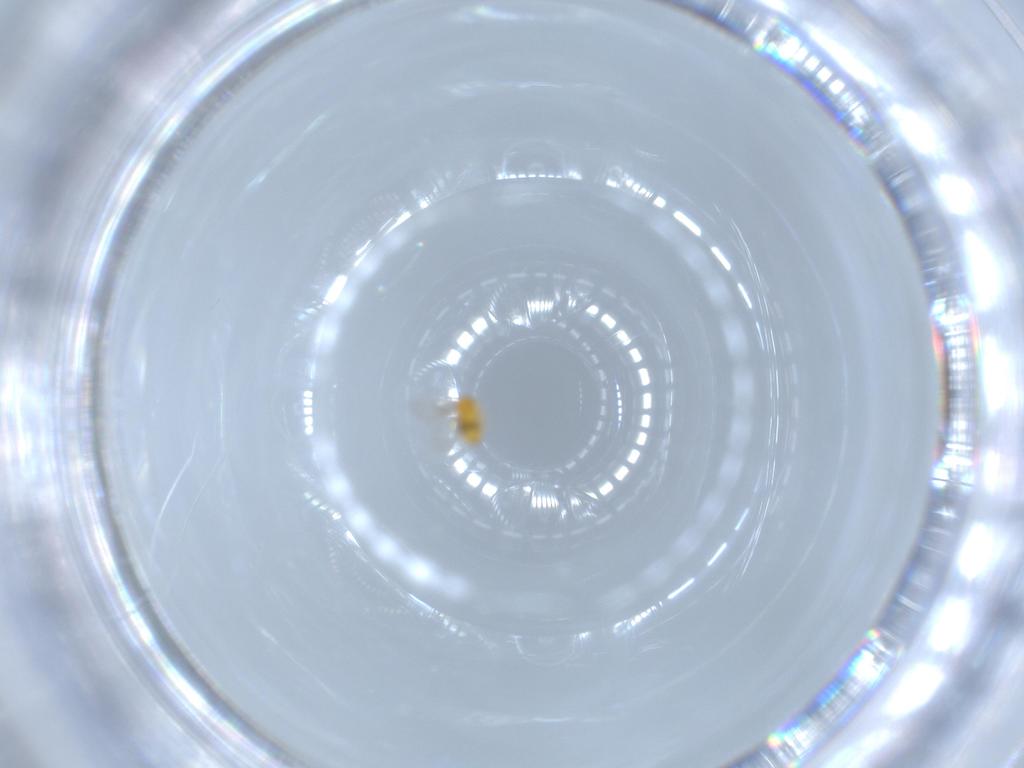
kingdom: Animalia
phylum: Arthropoda
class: Insecta
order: Hymenoptera
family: Trichogrammatidae
